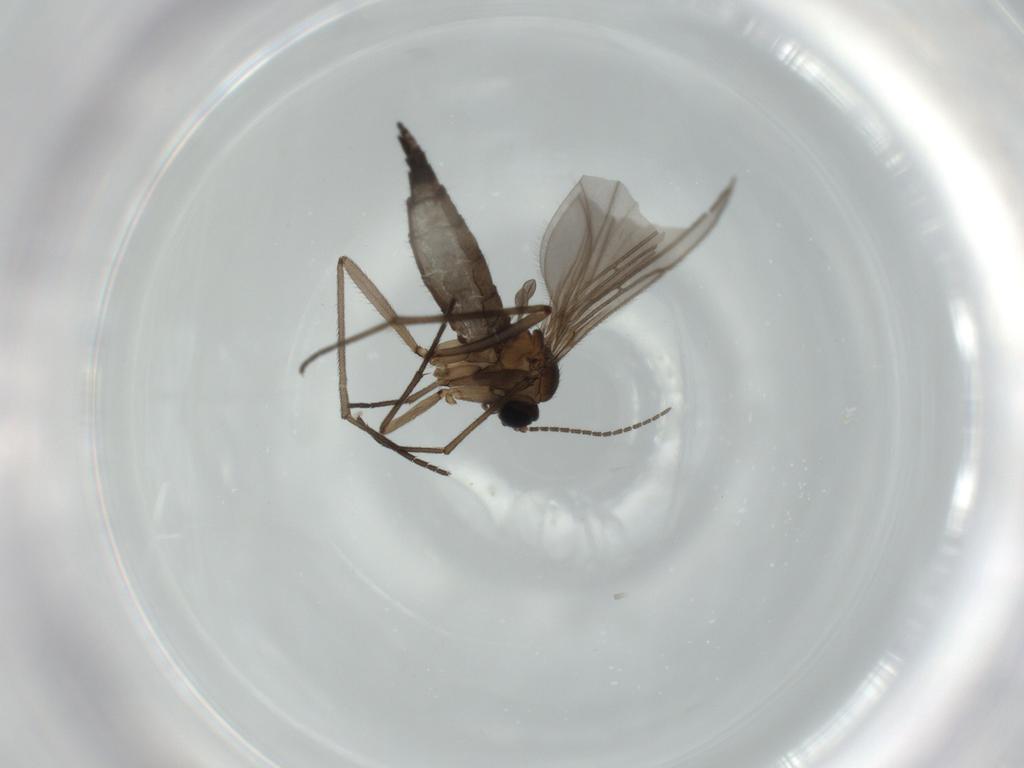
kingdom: Animalia
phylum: Arthropoda
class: Insecta
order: Diptera
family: Sciaridae
